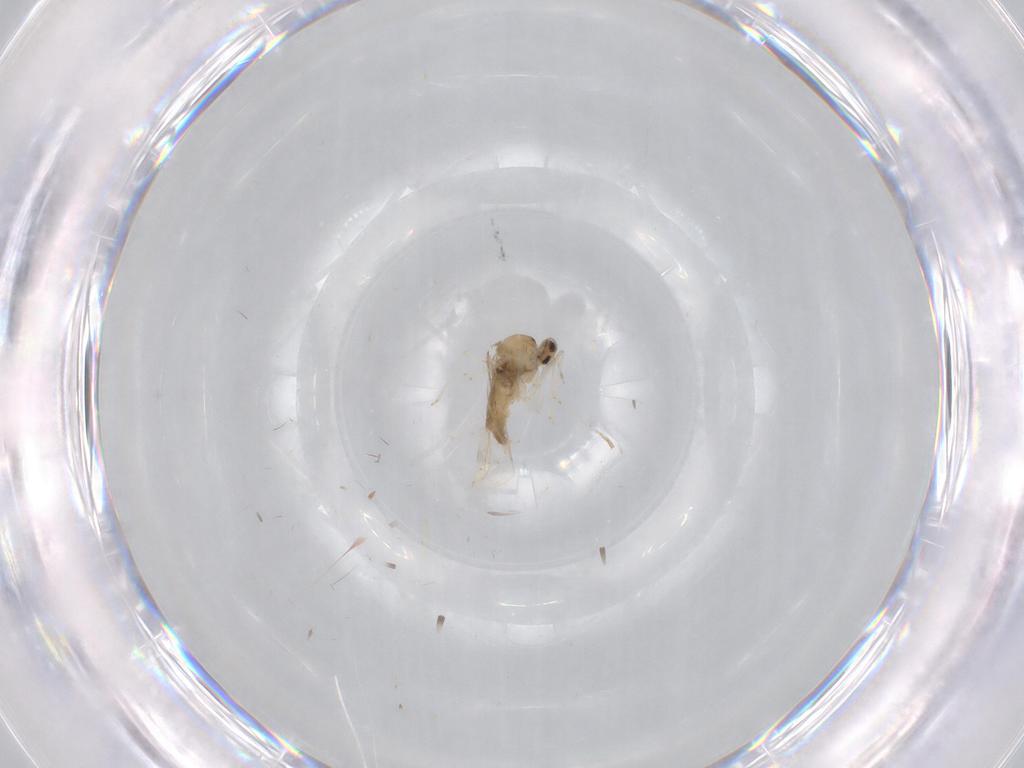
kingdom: Animalia
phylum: Arthropoda
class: Insecta
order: Diptera
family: Cecidomyiidae
